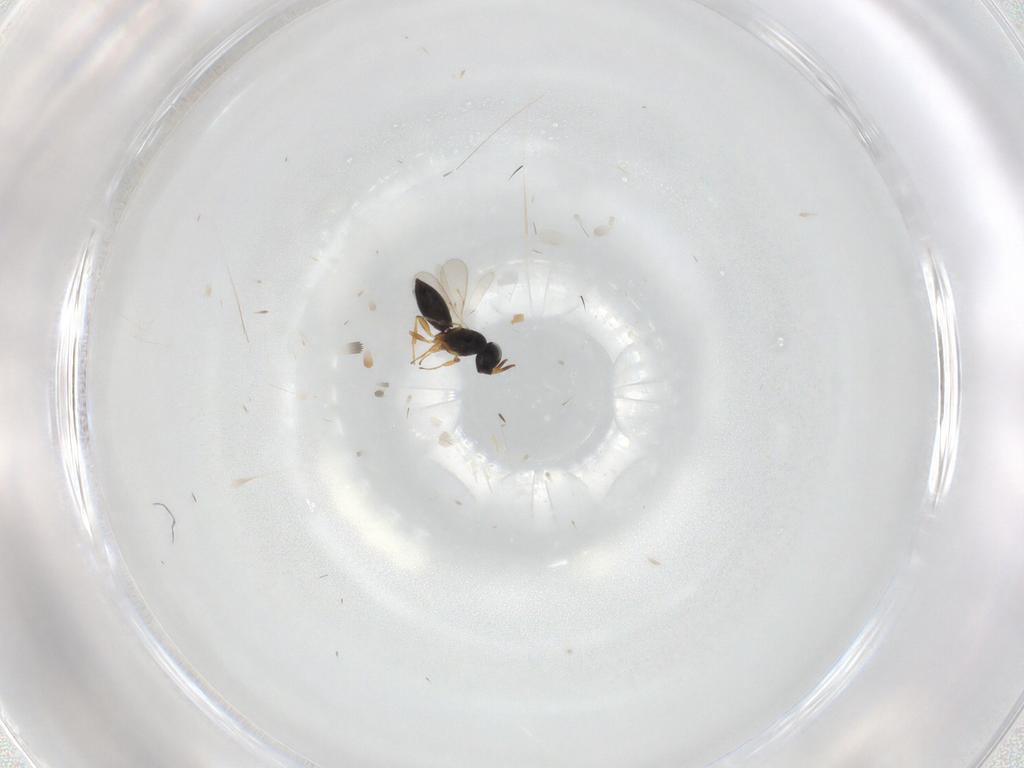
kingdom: Animalia
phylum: Arthropoda
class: Insecta
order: Hymenoptera
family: Scelionidae
